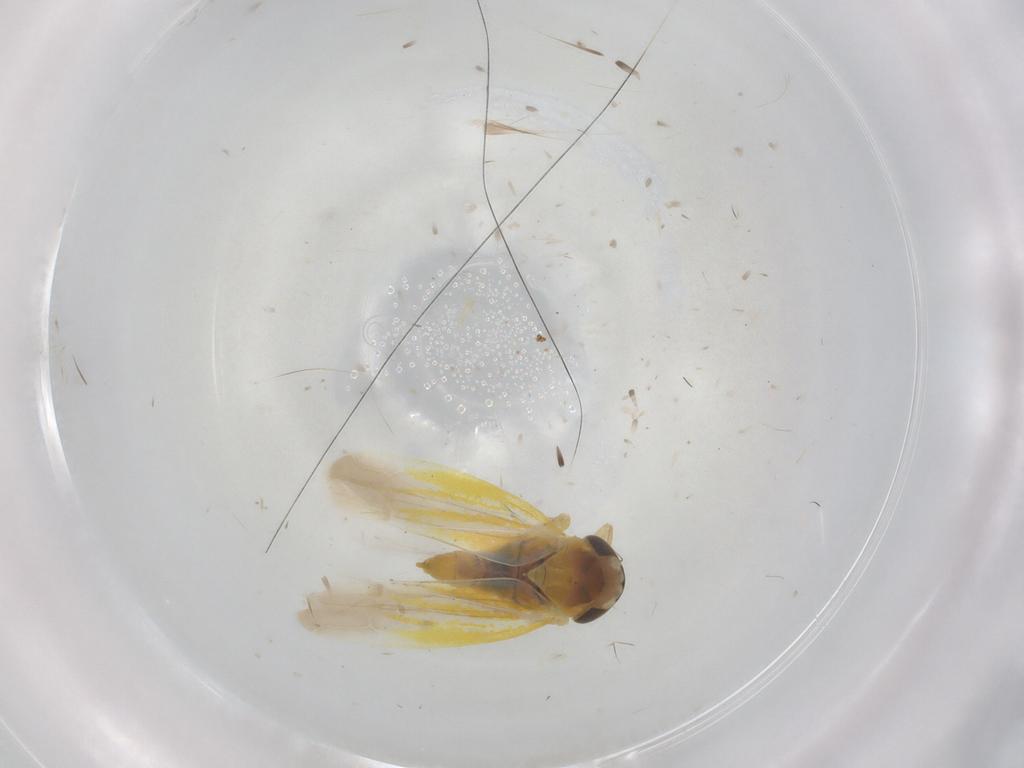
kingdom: Animalia
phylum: Arthropoda
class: Insecta
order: Hemiptera
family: Cicadellidae
